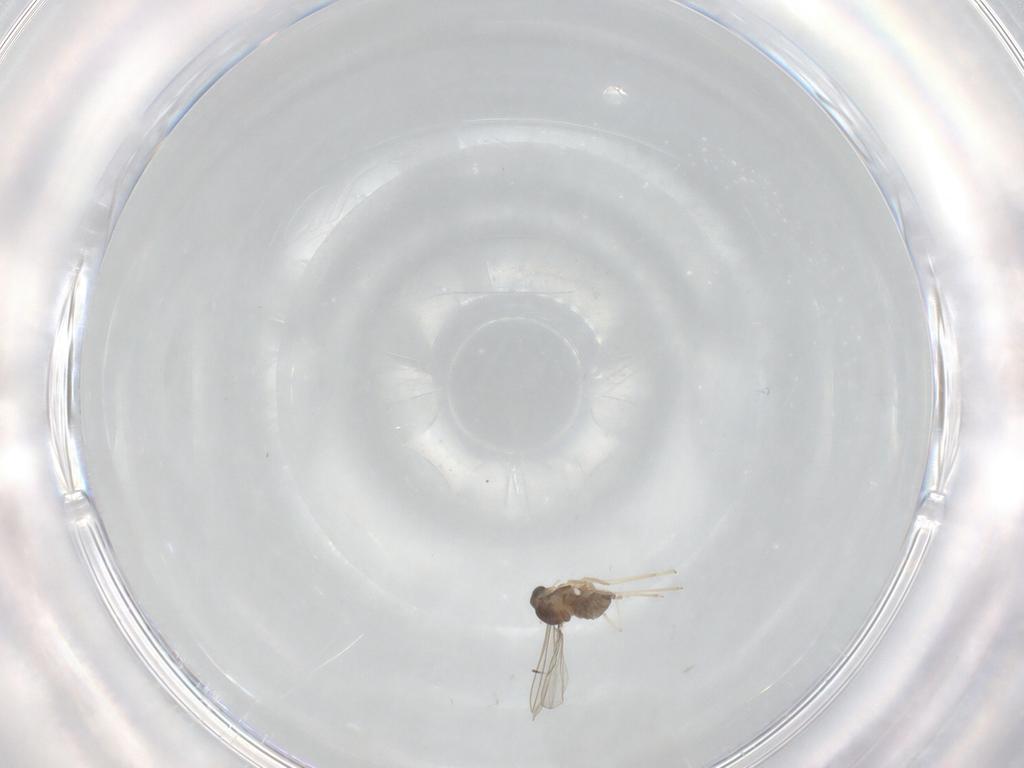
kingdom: Animalia
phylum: Arthropoda
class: Insecta
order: Diptera
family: Cecidomyiidae
